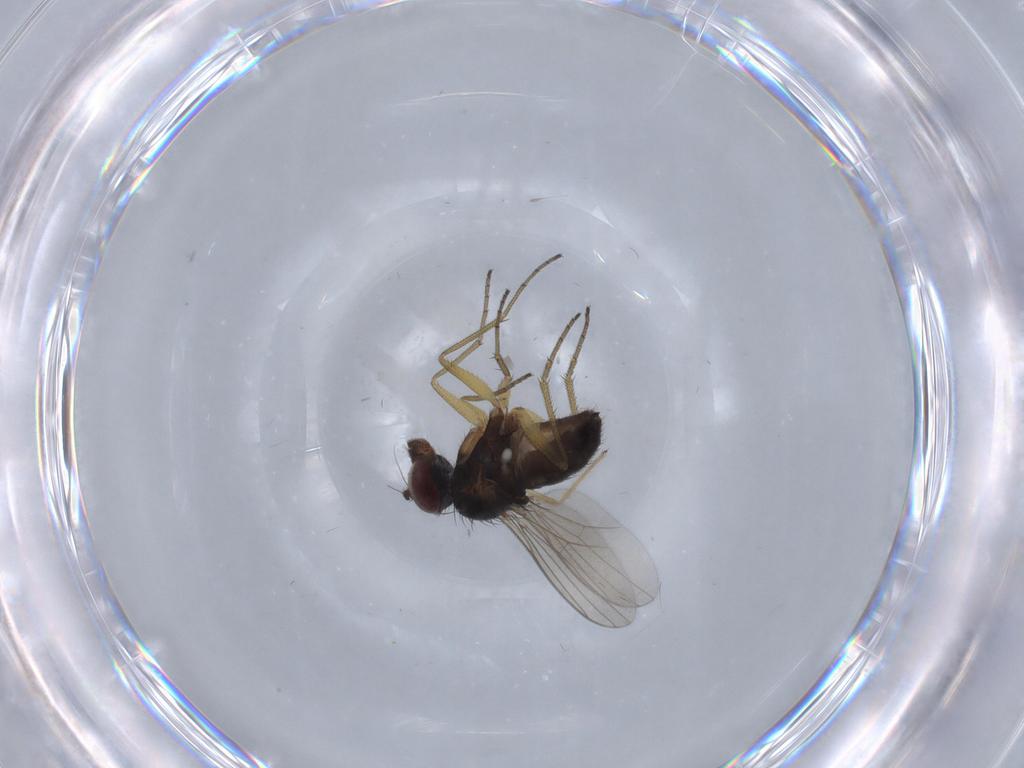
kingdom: Animalia
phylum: Arthropoda
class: Insecta
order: Diptera
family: Dolichopodidae
